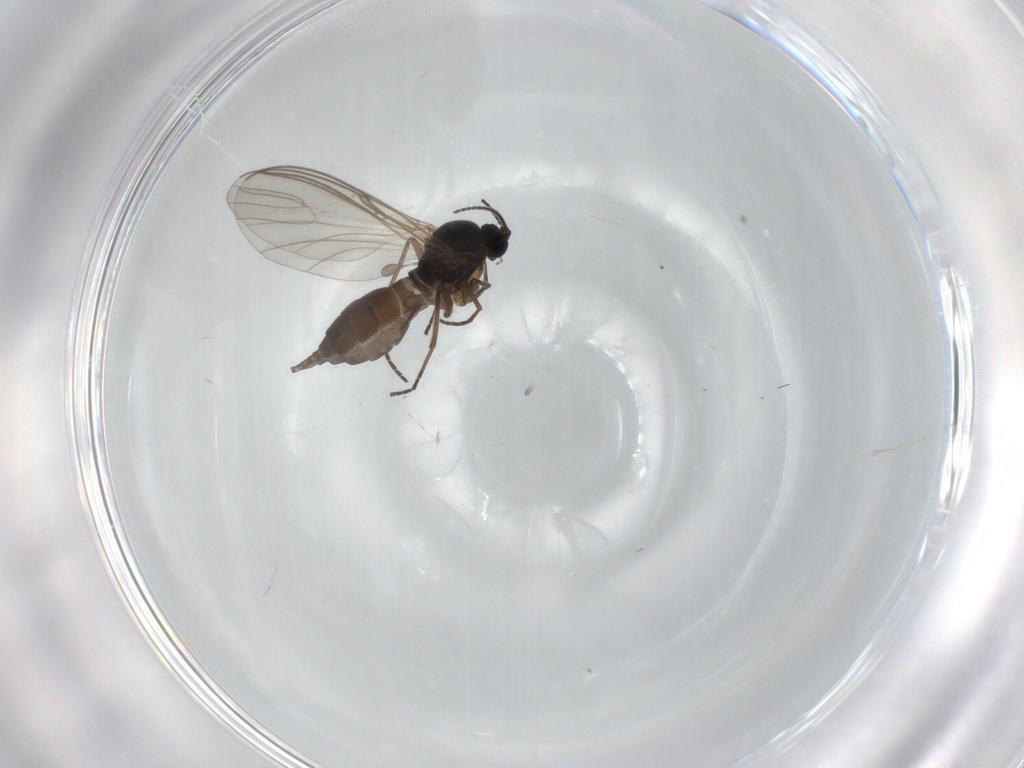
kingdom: Animalia
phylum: Arthropoda
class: Insecta
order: Diptera
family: Sciaridae
